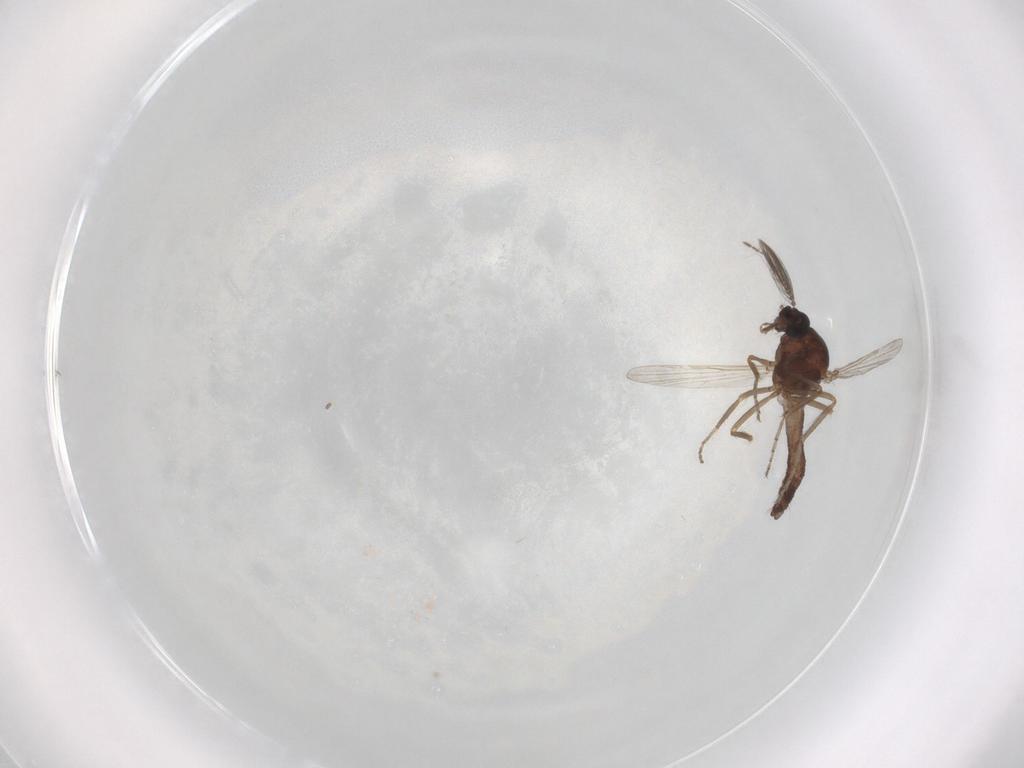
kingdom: Animalia
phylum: Arthropoda
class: Insecta
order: Diptera
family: Ceratopogonidae
